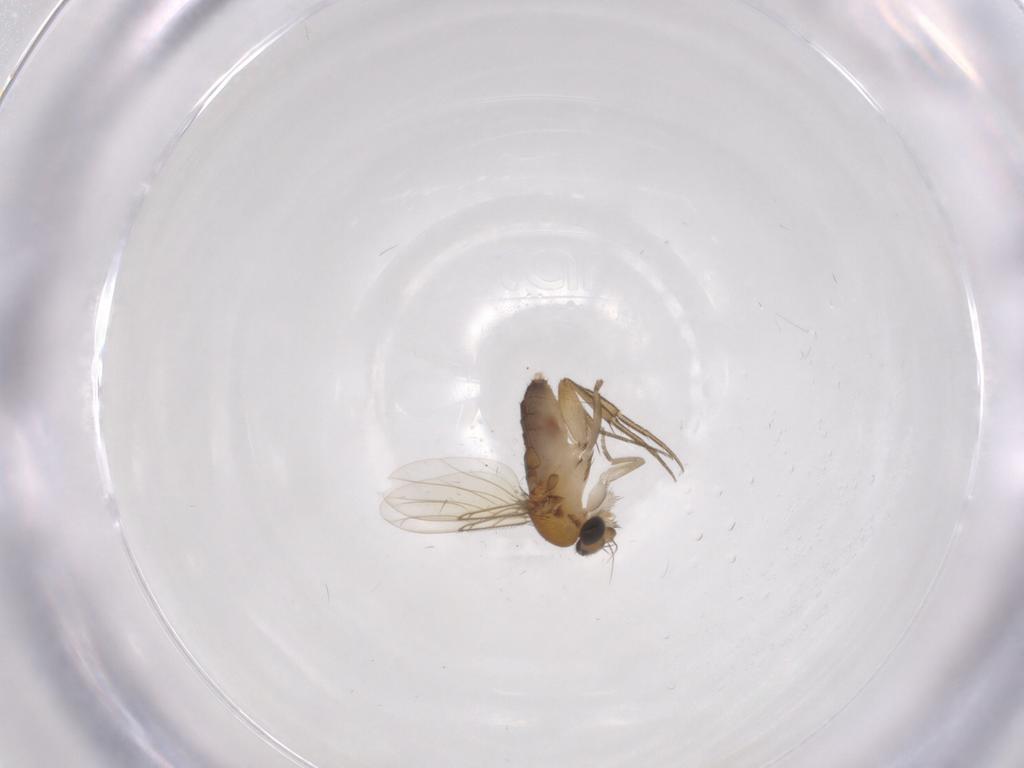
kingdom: Animalia
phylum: Arthropoda
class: Insecta
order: Diptera
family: Phoridae
